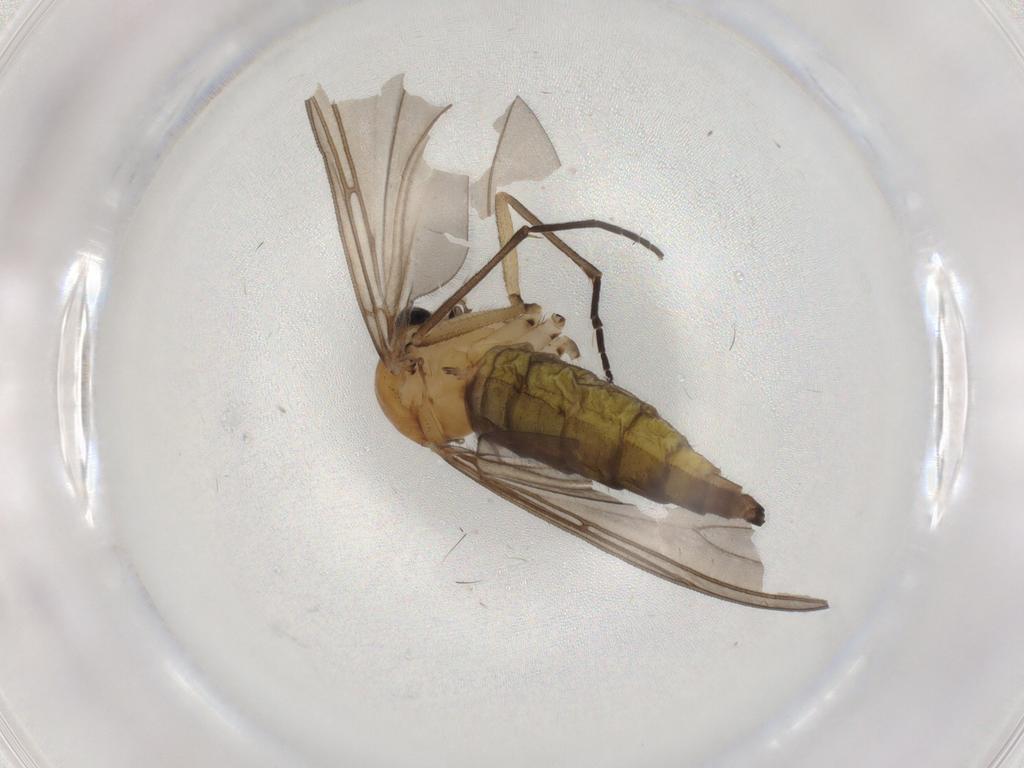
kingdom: Animalia
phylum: Arthropoda
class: Insecta
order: Diptera
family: Sciaridae
